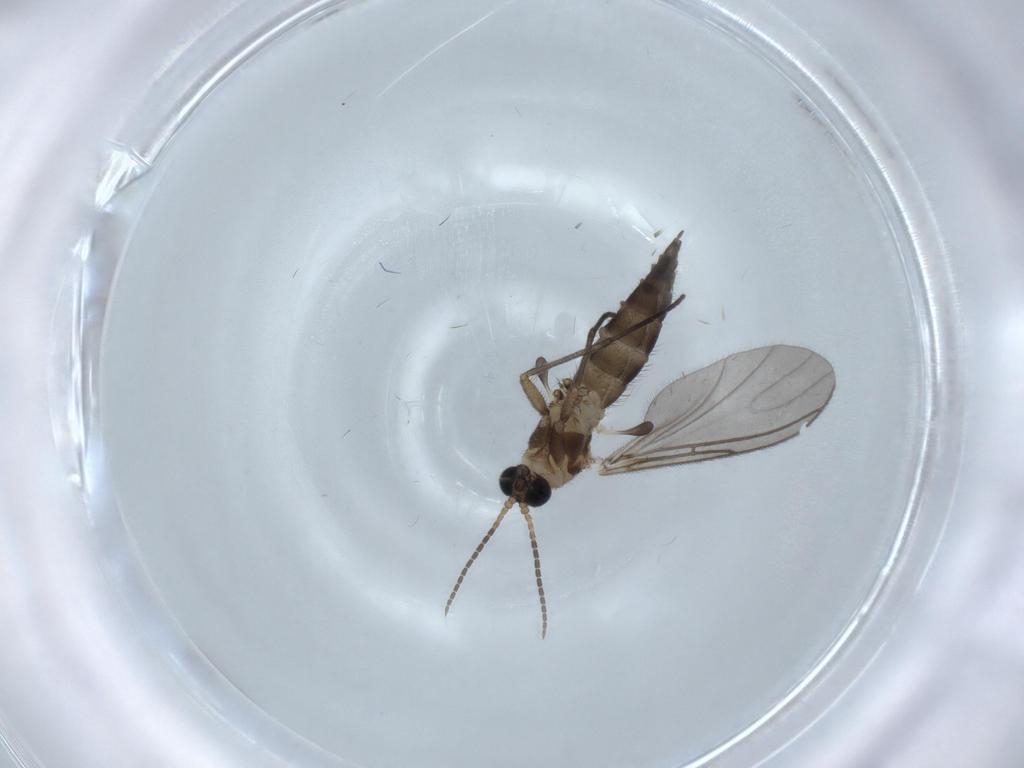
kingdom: Animalia
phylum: Arthropoda
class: Insecta
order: Diptera
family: Sciaridae
